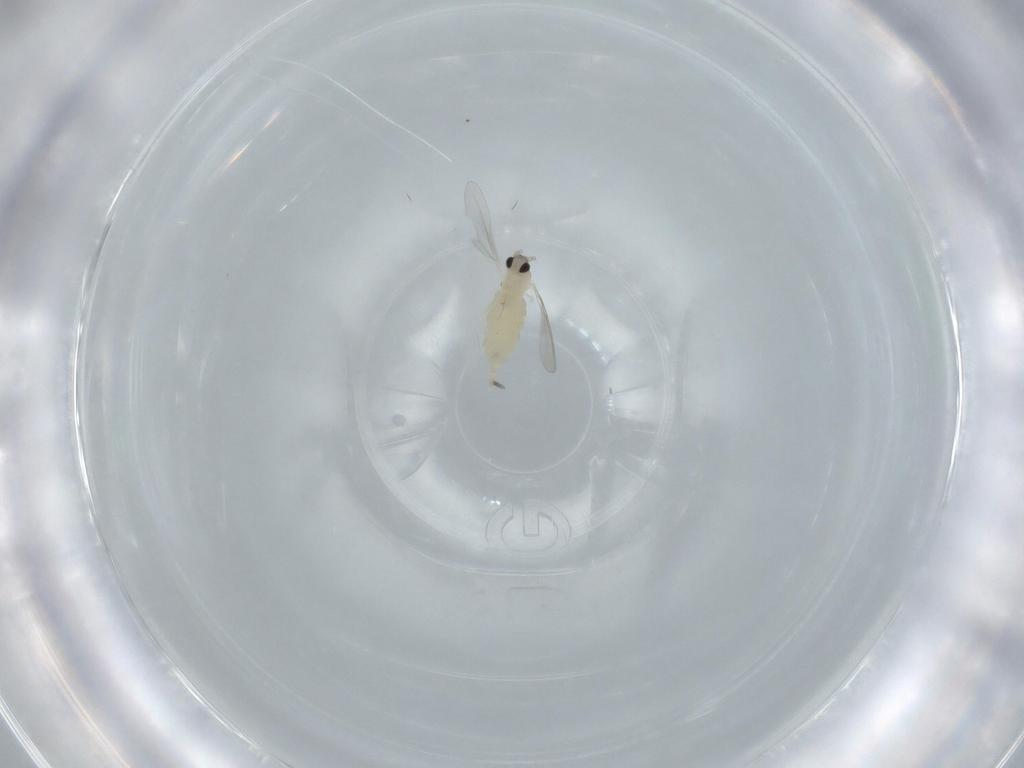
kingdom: Animalia
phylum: Arthropoda
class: Insecta
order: Diptera
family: Cecidomyiidae
